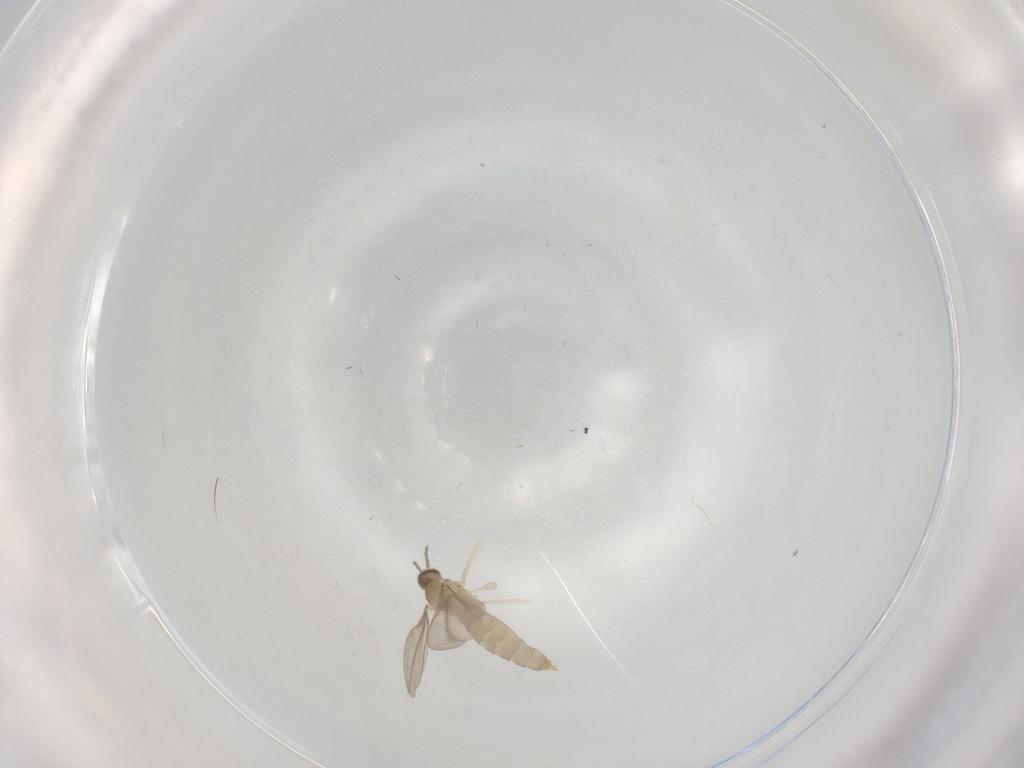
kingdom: Animalia
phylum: Arthropoda
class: Insecta
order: Diptera
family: Cecidomyiidae
